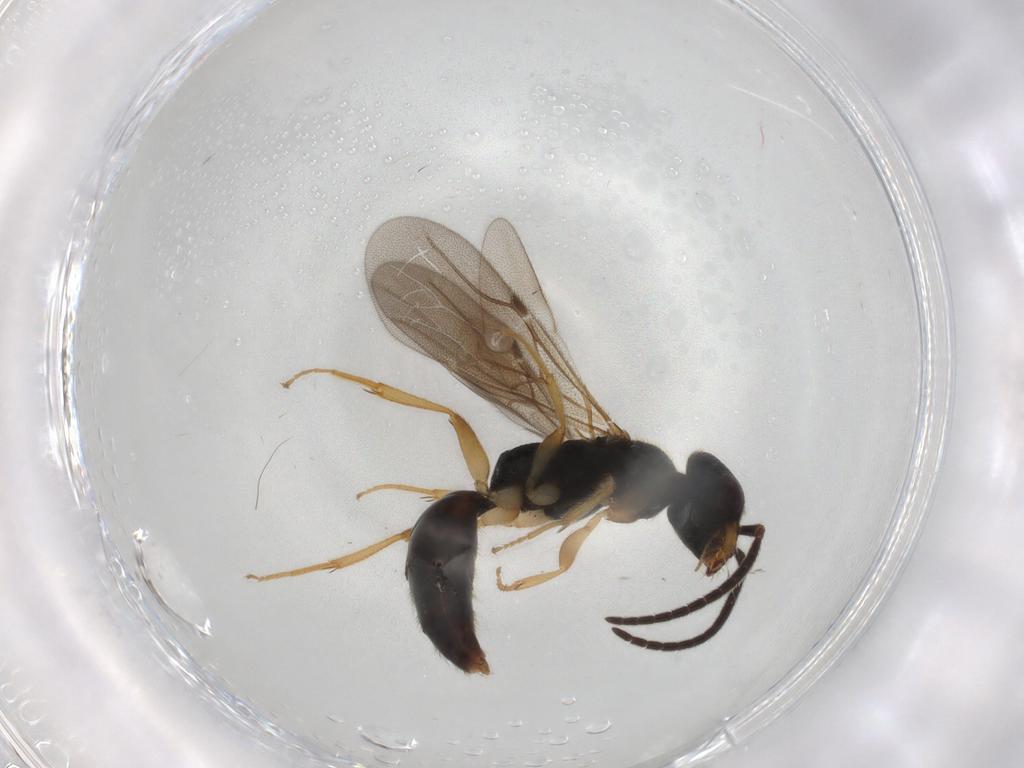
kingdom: Animalia
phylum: Arthropoda
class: Insecta
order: Hymenoptera
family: Bethylidae
